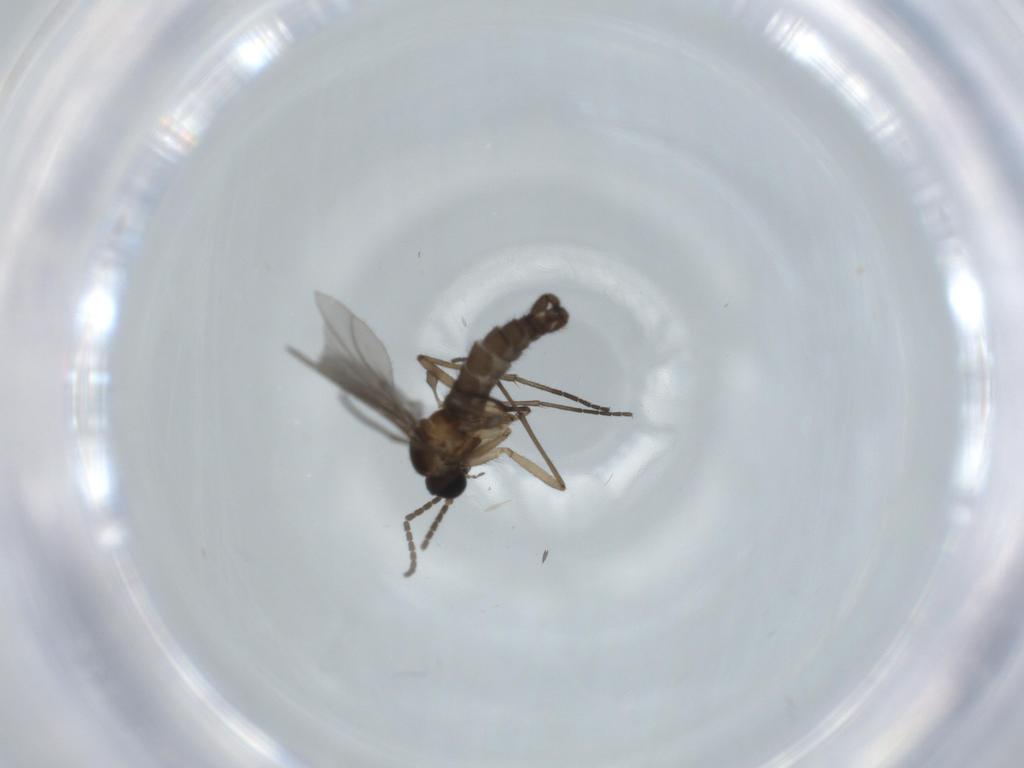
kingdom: Animalia
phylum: Arthropoda
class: Insecta
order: Diptera
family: Sciaridae
